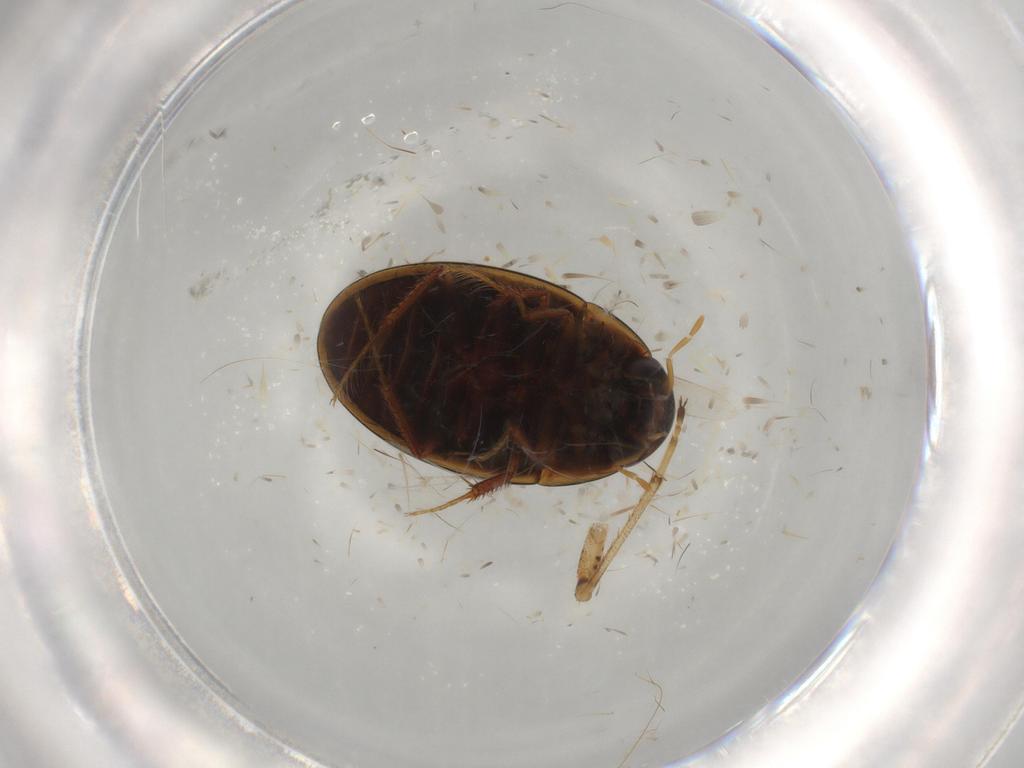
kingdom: Animalia
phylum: Arthropoda
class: Insecta
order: Coleoptera
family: Hydrophilidae
